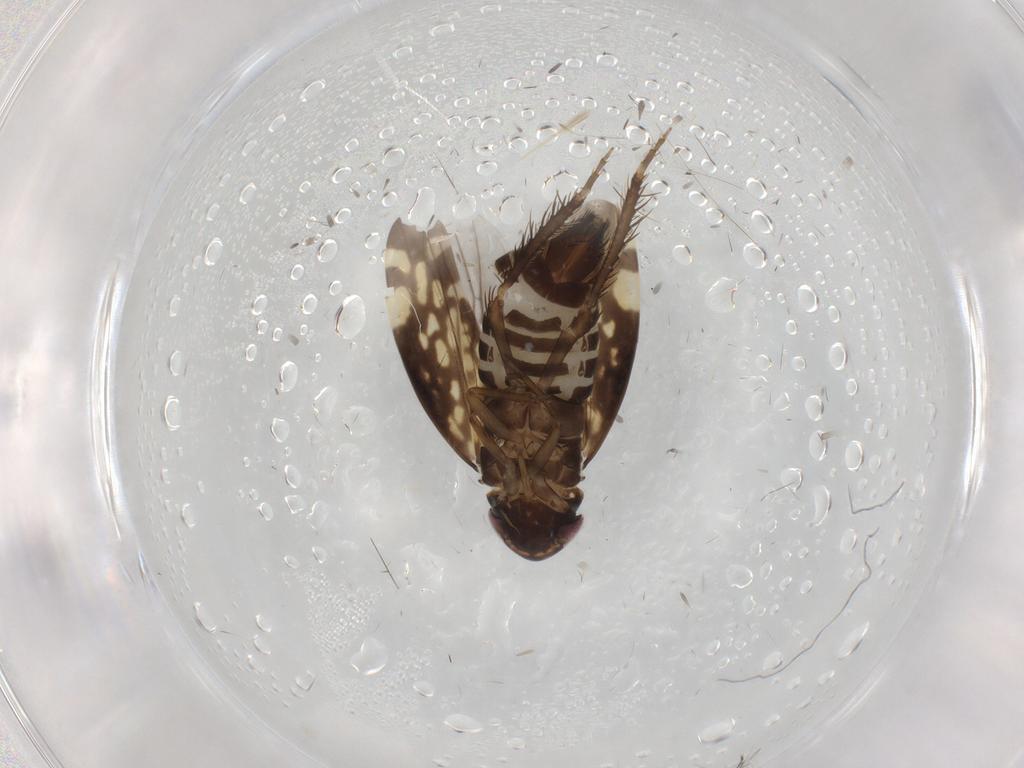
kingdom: Animalia
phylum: Arthropoda
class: Insecta
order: Hemiptera
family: Cicadellidae
